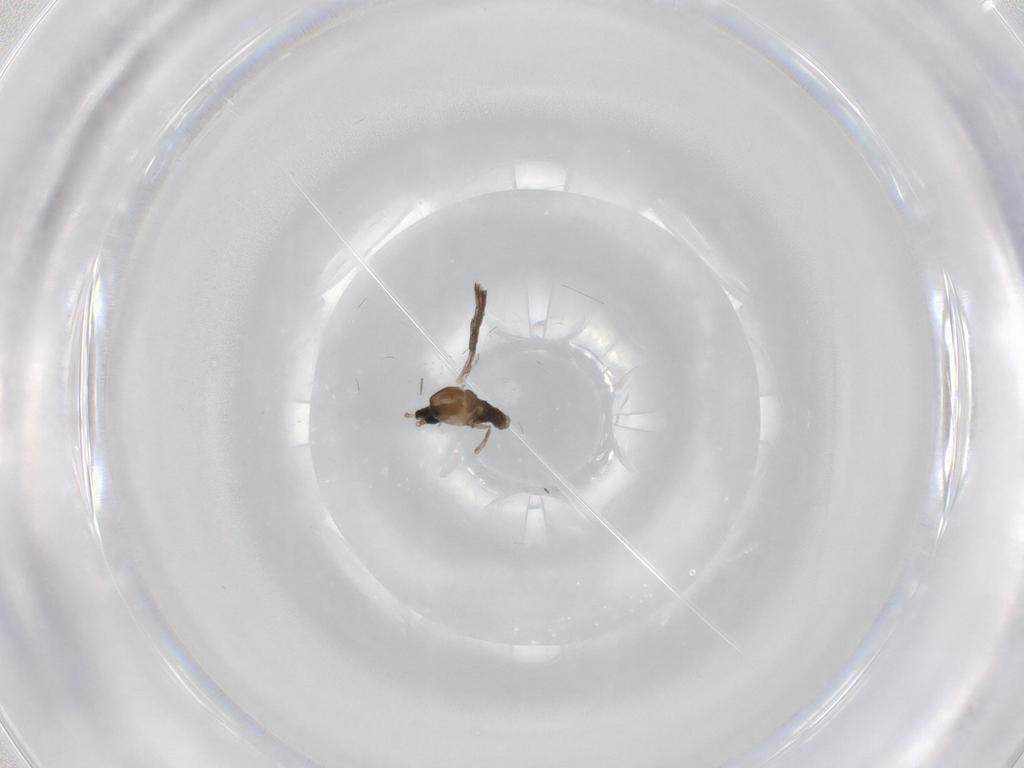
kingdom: Animalia
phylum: Arthropoda
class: Insecta
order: Diptera
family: Cecidomyiidae
